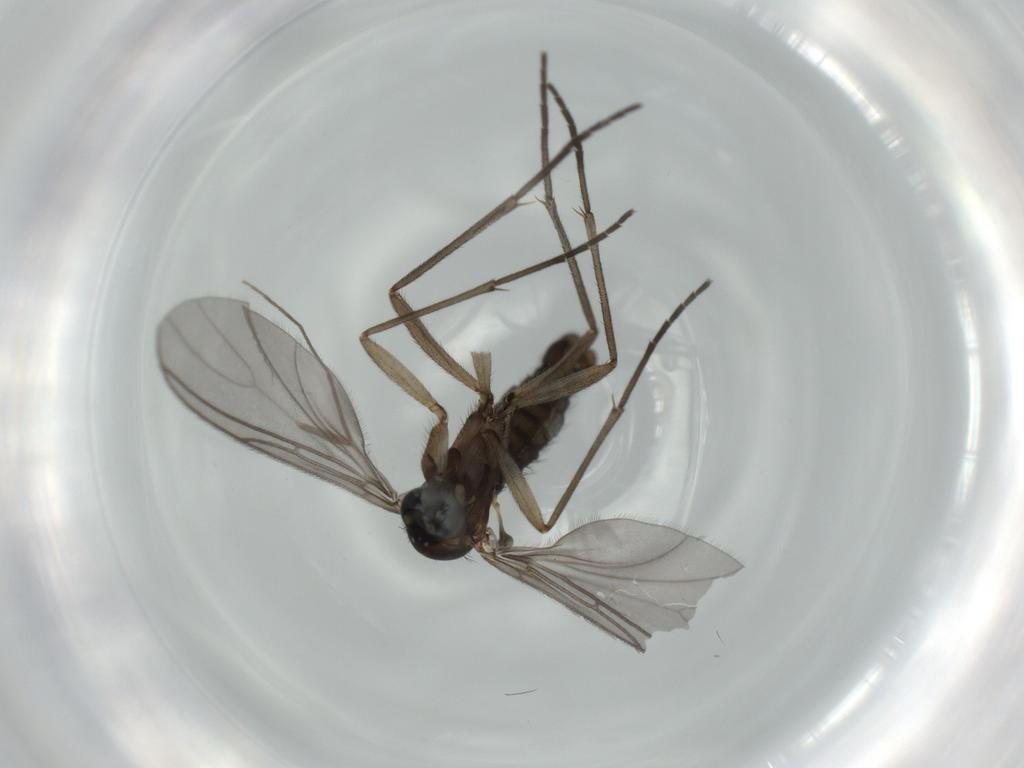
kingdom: Animalia
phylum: Arthropoda
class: Insecta
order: Diptera
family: Sciaridae
